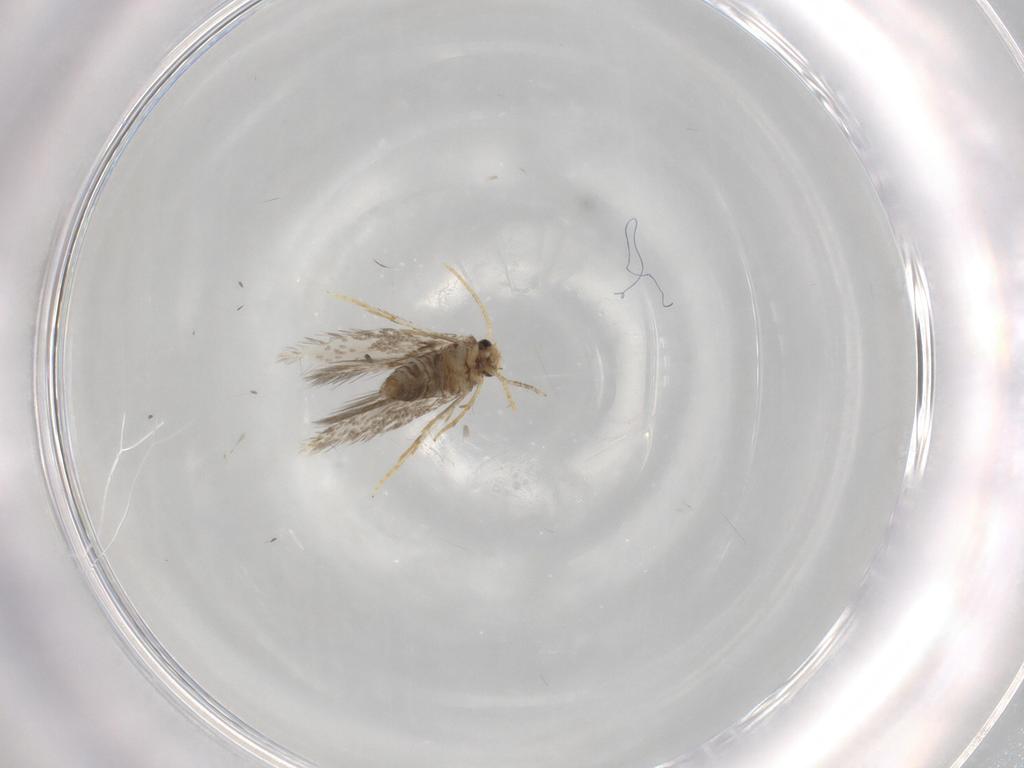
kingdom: Animalia
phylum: Arthropoda
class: Insecta
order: Lepidoptera
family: Copromorphidae
